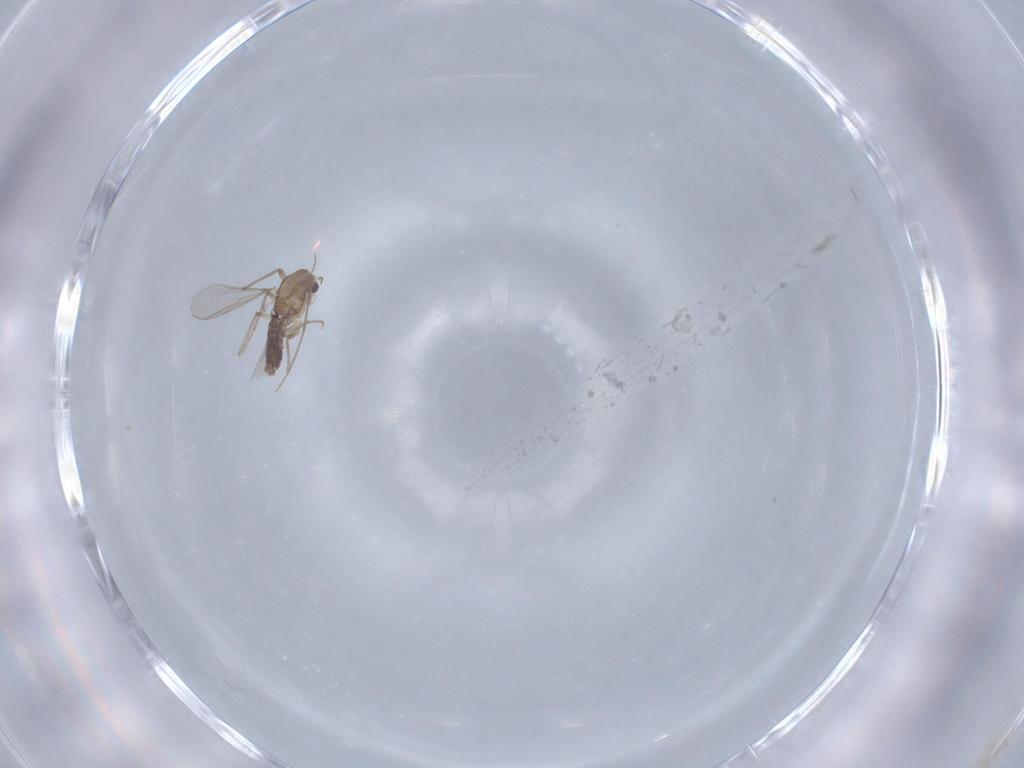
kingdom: Animalia
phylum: Arthropoda
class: Insecta
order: Diptera
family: Chironomidae
